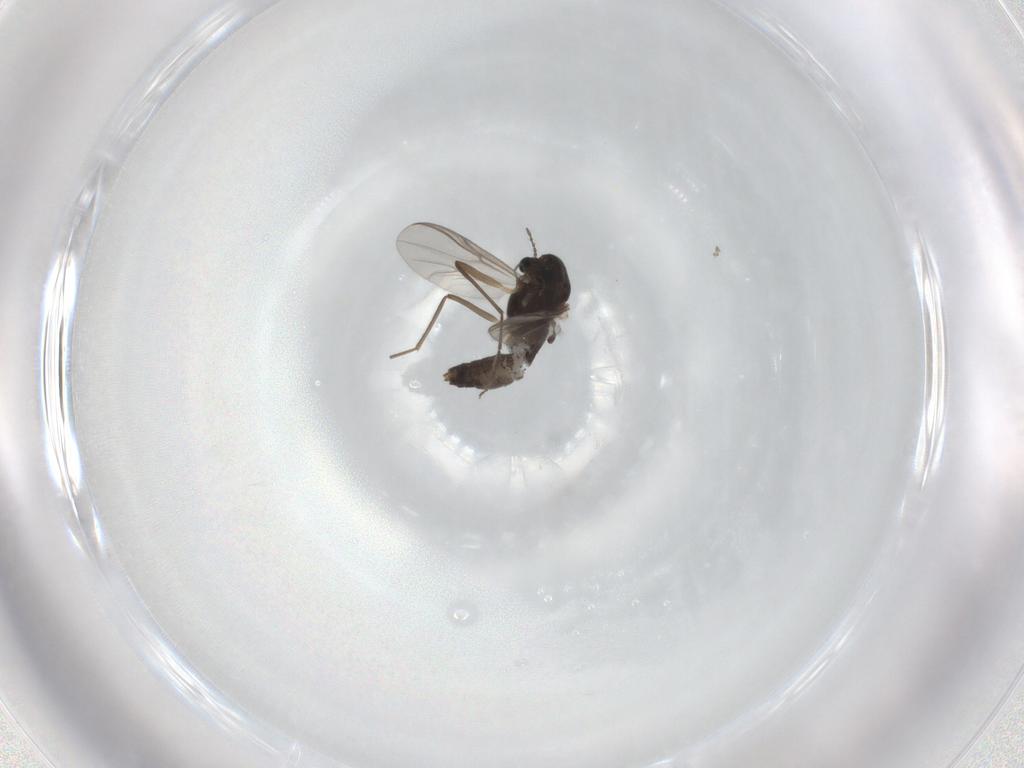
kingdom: Animalia
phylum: Arthropoda
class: Insecta
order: Diptera
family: Chironomidae
